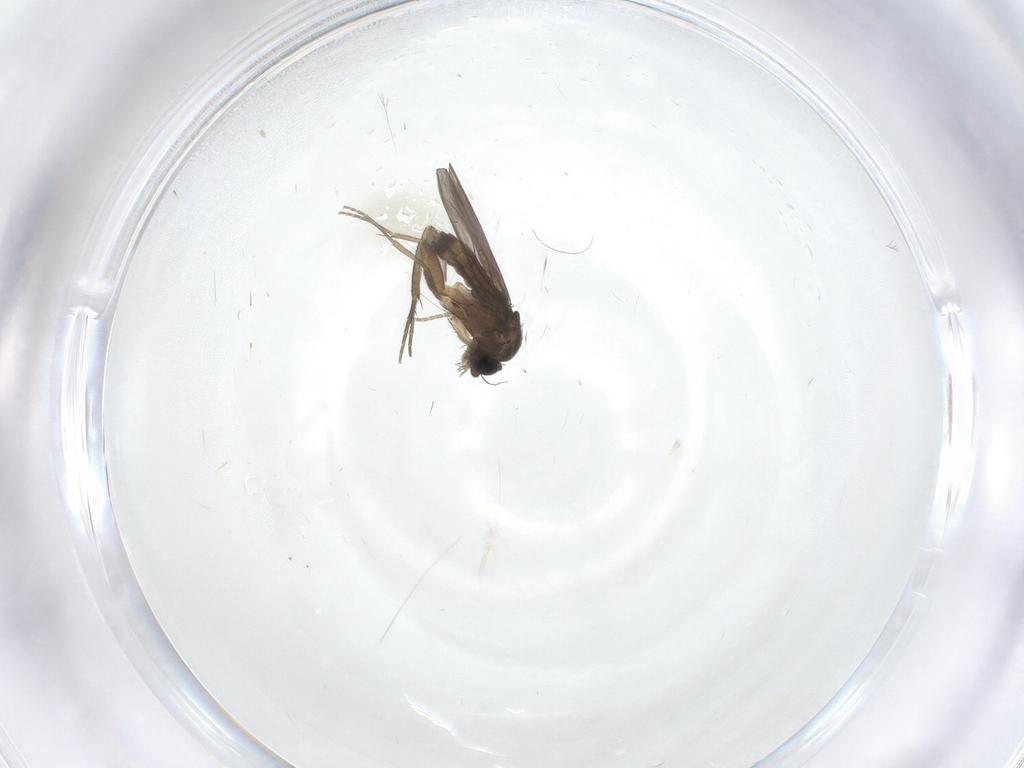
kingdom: Animalia
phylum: Arthropoda
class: Insecta
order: Diptera
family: Phoridae
